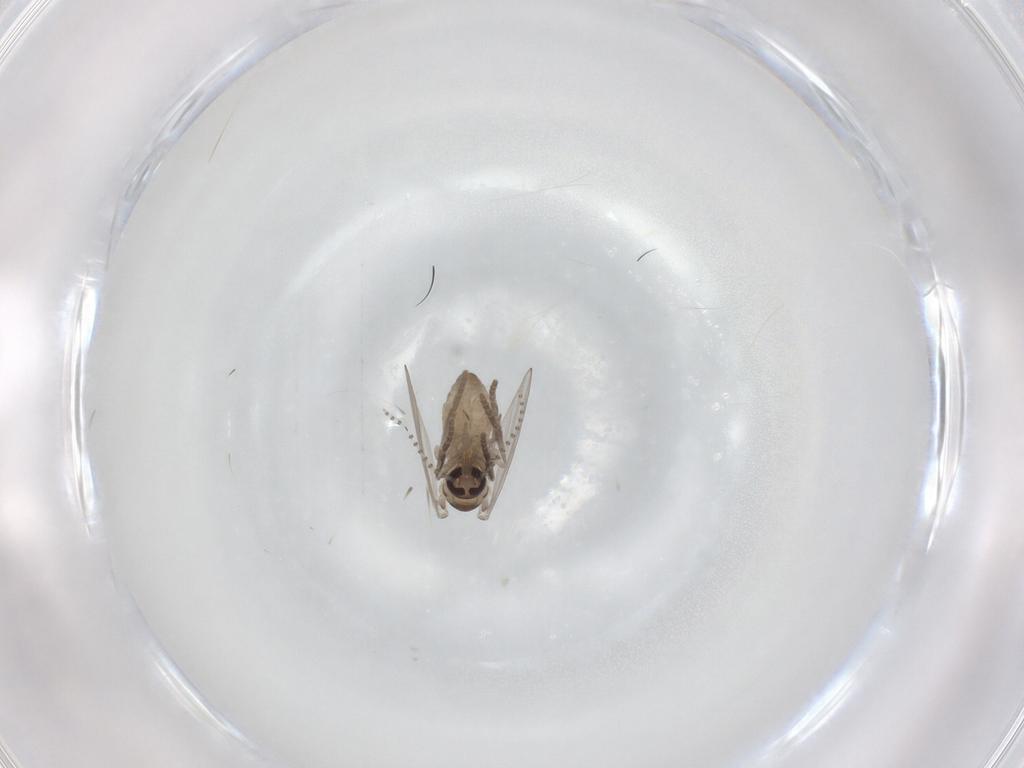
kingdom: Animalia
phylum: Arthropoda
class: Insecta
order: Diptera
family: Psychodidae
